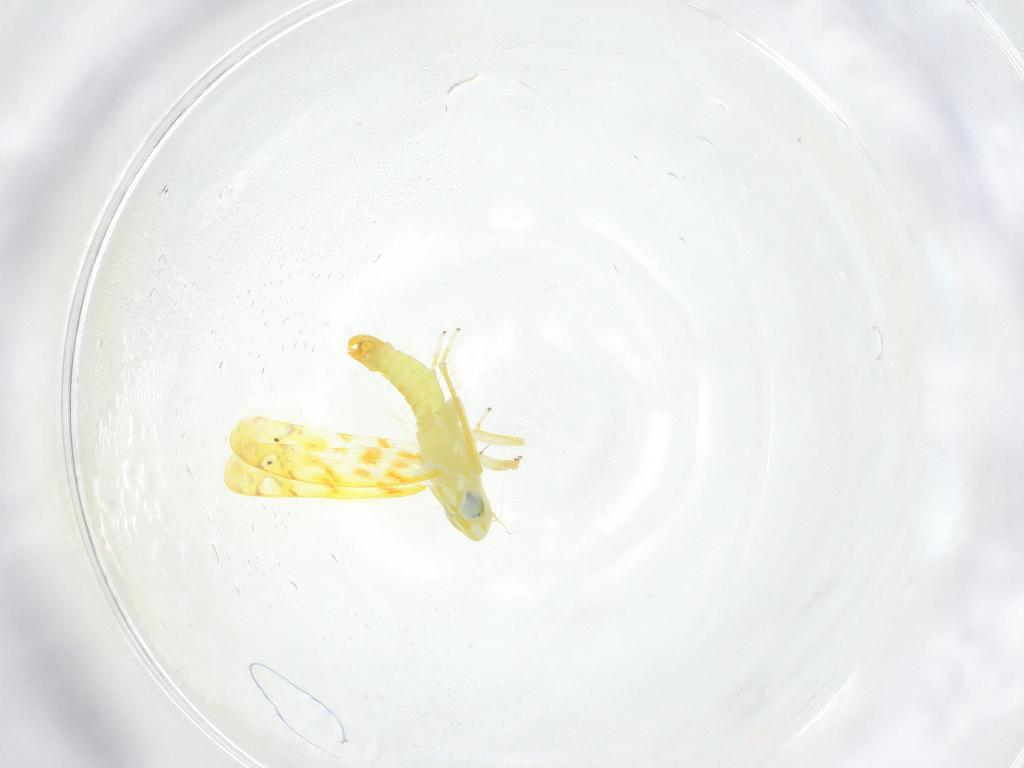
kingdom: Animalia
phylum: Arthropoda
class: Insecta
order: Hemiptera
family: Cicadellidae
